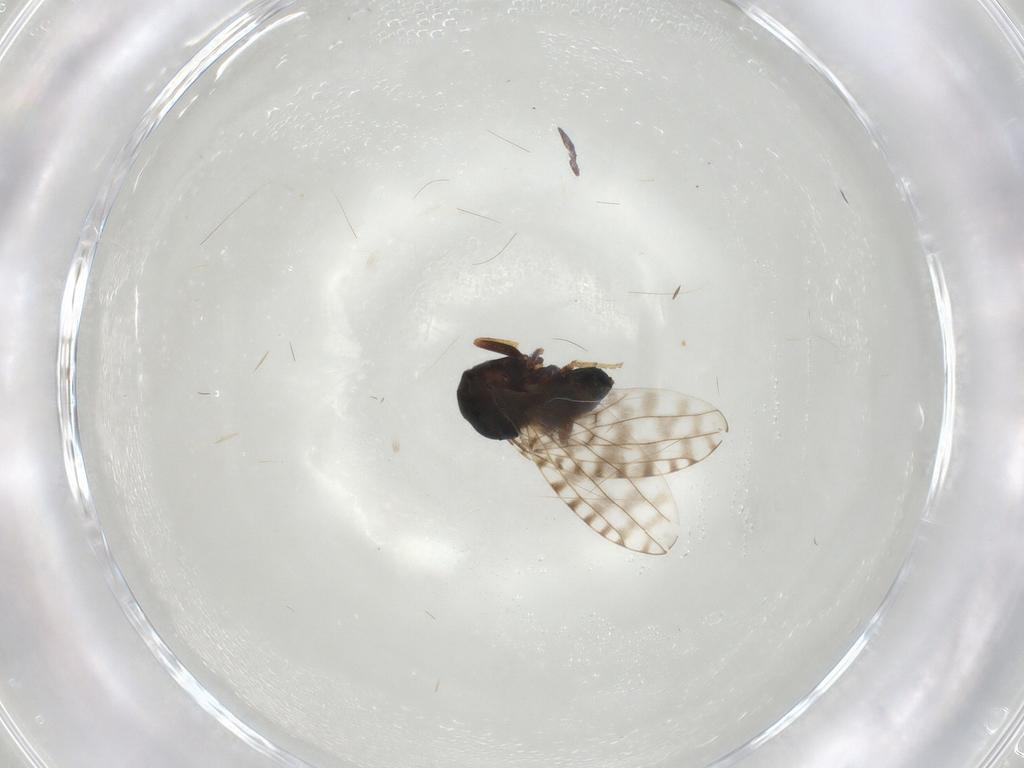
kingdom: Animalia
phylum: Arthropoda
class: Insecta
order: Diptera
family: Ephydridae
